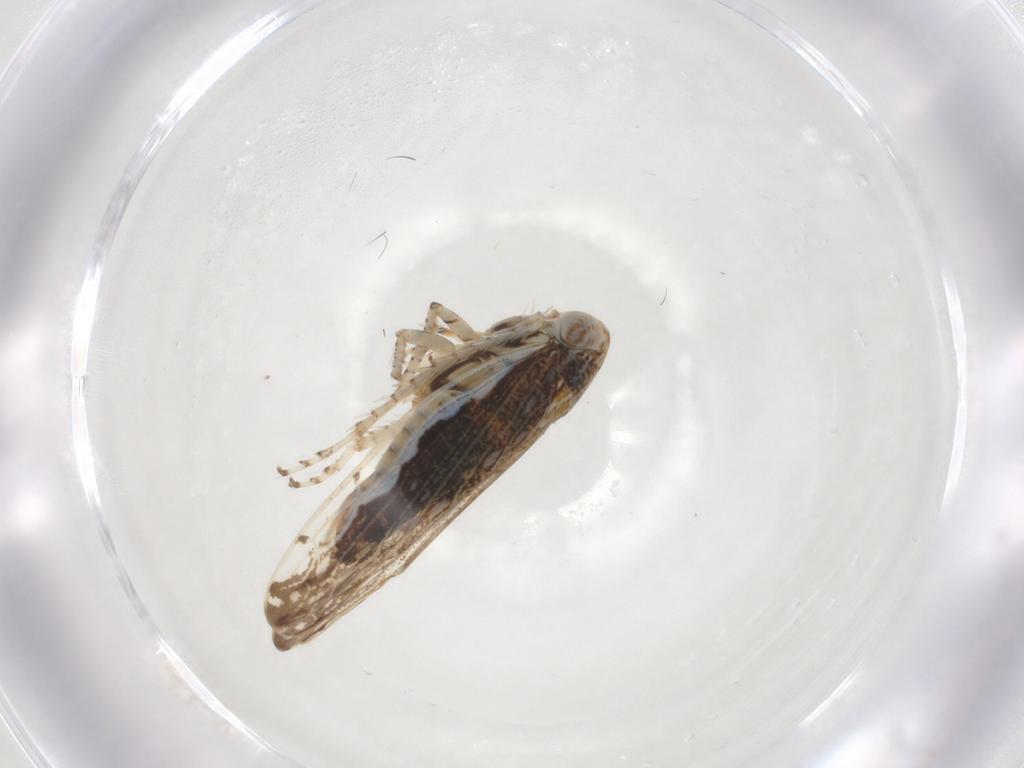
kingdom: Animalia
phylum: Arthropoda
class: Insecta
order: Hemiptera
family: Cicadellidae
